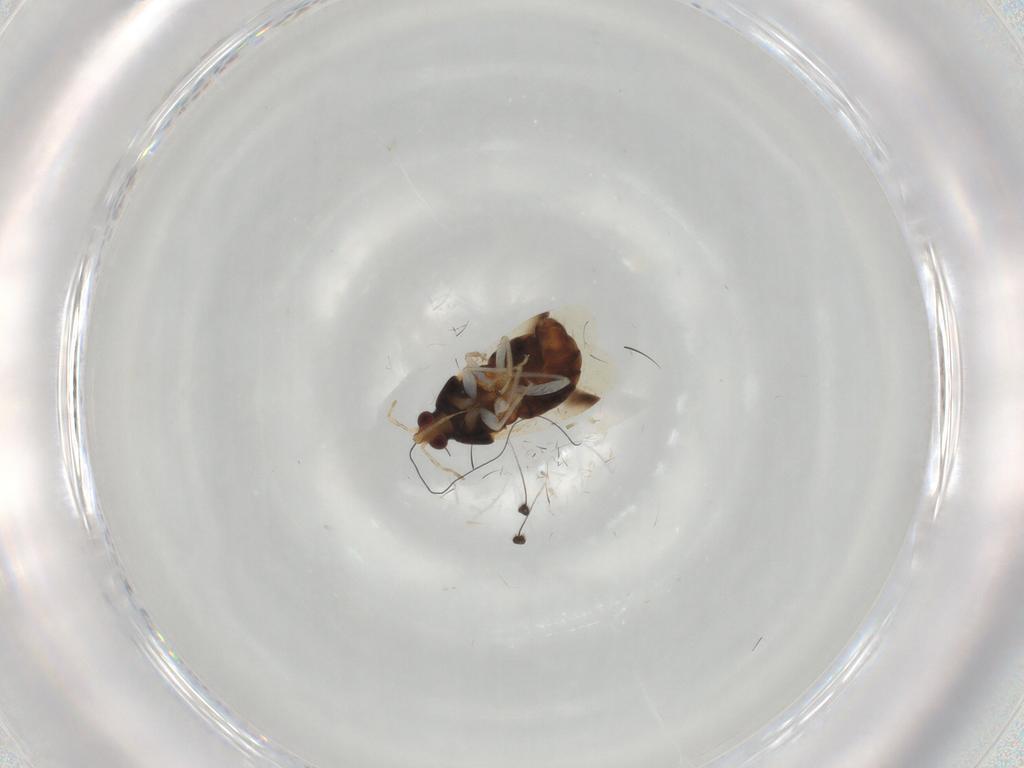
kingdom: Animalia
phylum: Arthropoda
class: Insecta
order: Hemiptera
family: Anthocoridae
